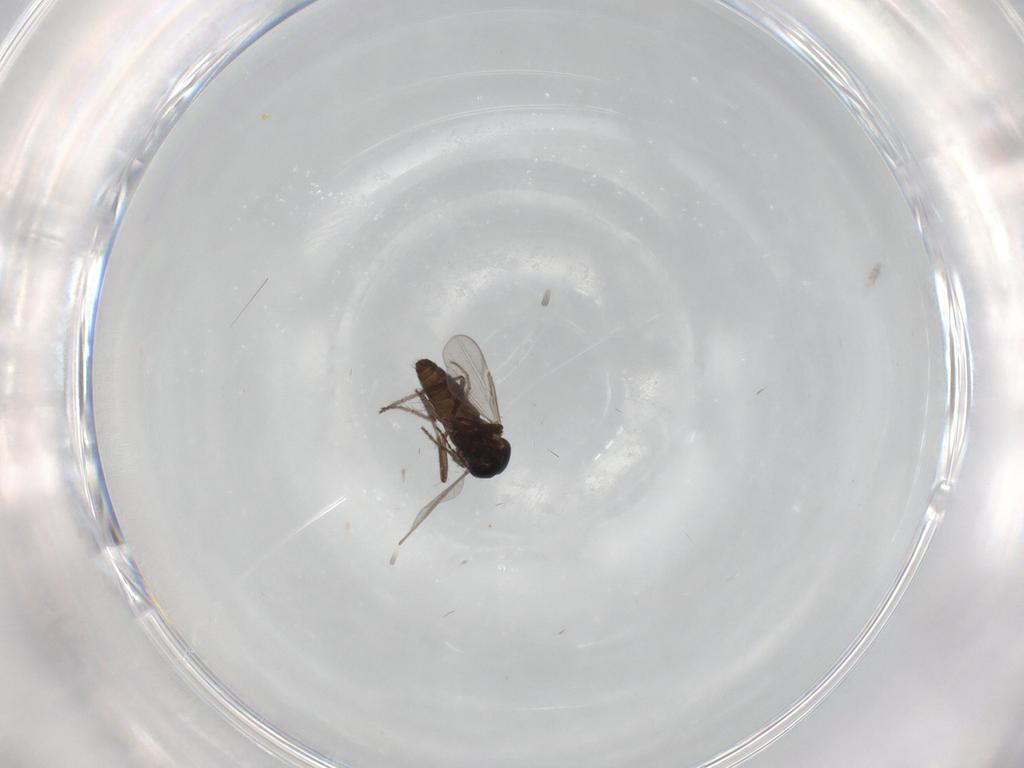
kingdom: Animalia
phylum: Arthropoda
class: Insecta
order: Diptera
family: Ceratopogonidae
